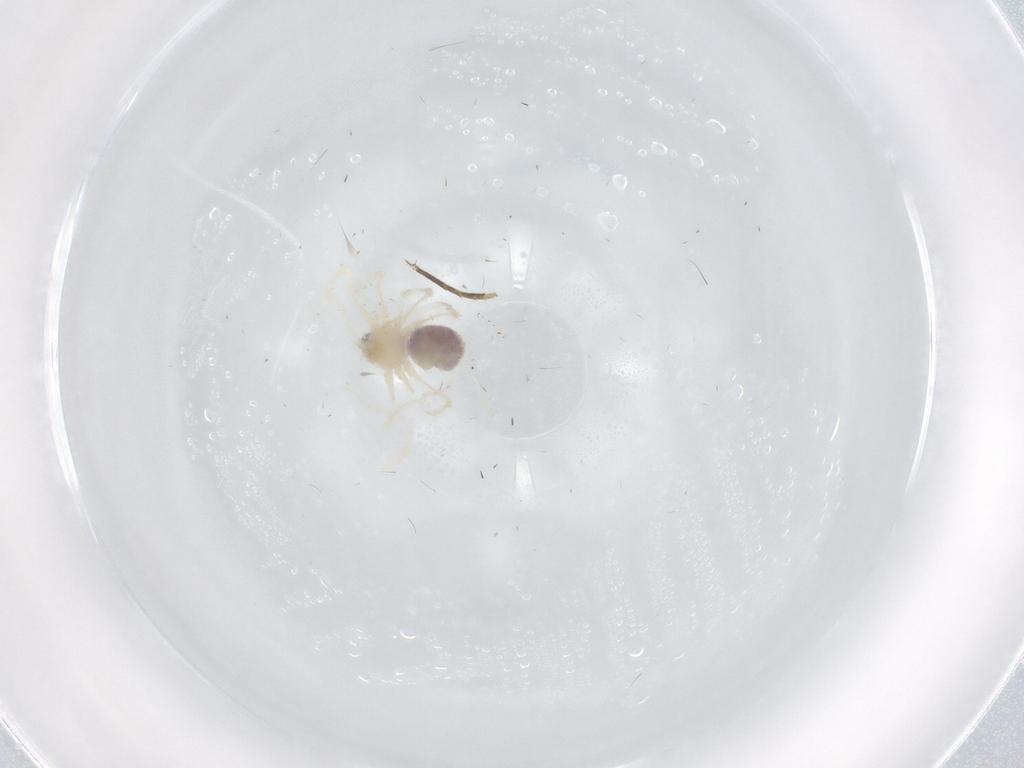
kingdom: Animalia
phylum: Arthropoda
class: Arachnida
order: Araneae
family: Pholcidae
